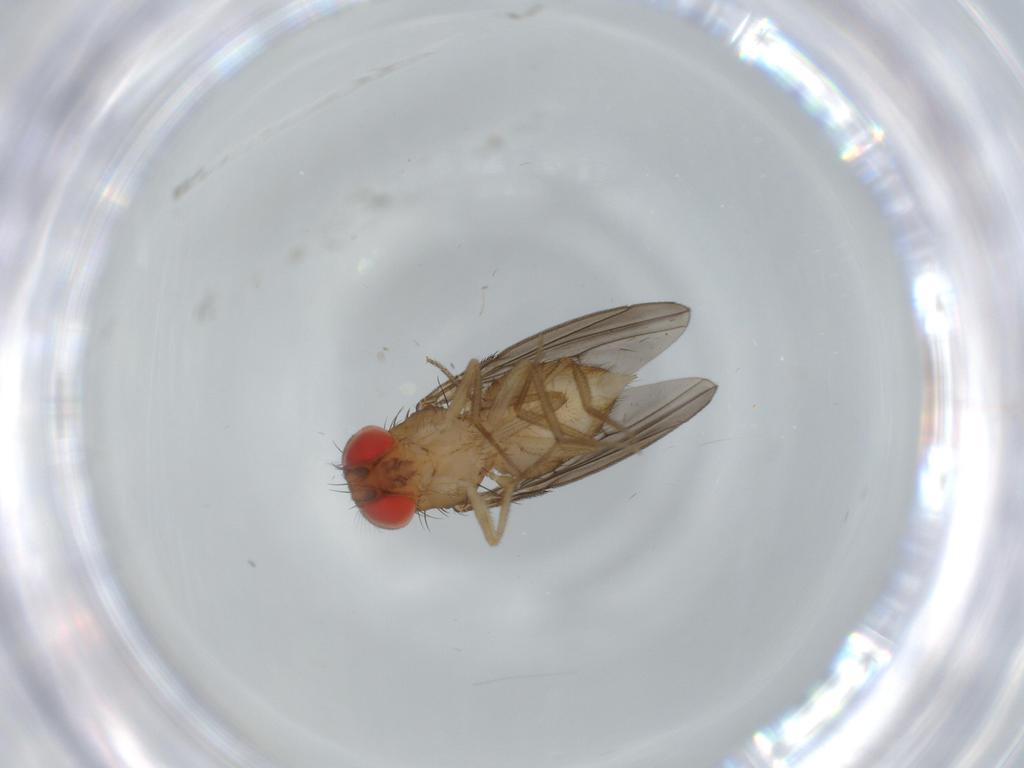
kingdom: Animalia
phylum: Arthropoda
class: Insecta
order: Diptera
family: Drosophilidae
